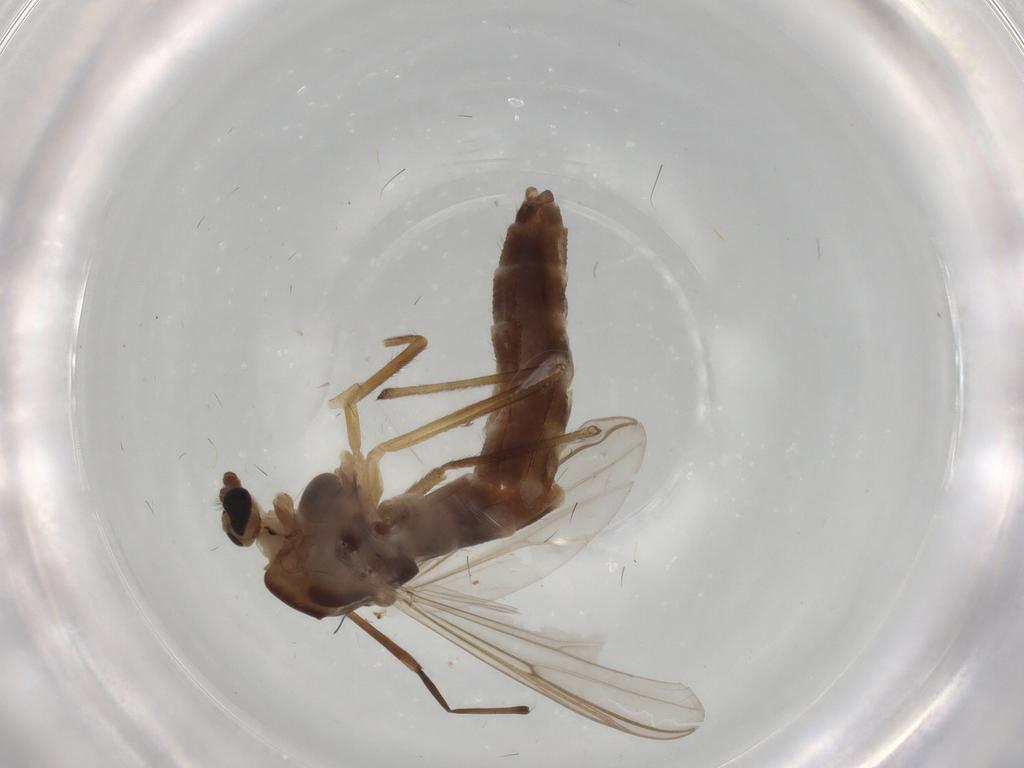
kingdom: Animalia
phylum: Arthropoda
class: Insecta
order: Diptera
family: Chironomidae
